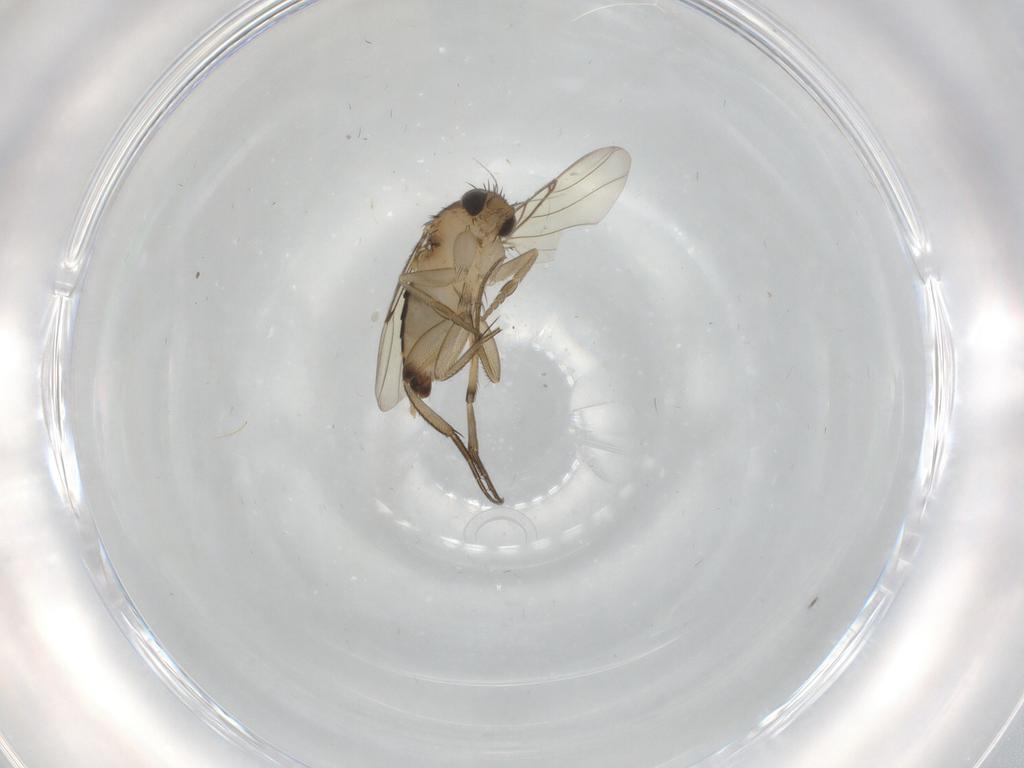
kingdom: Animalia
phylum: Arthropoda
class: Insecta
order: Diptera
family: Phoridae
